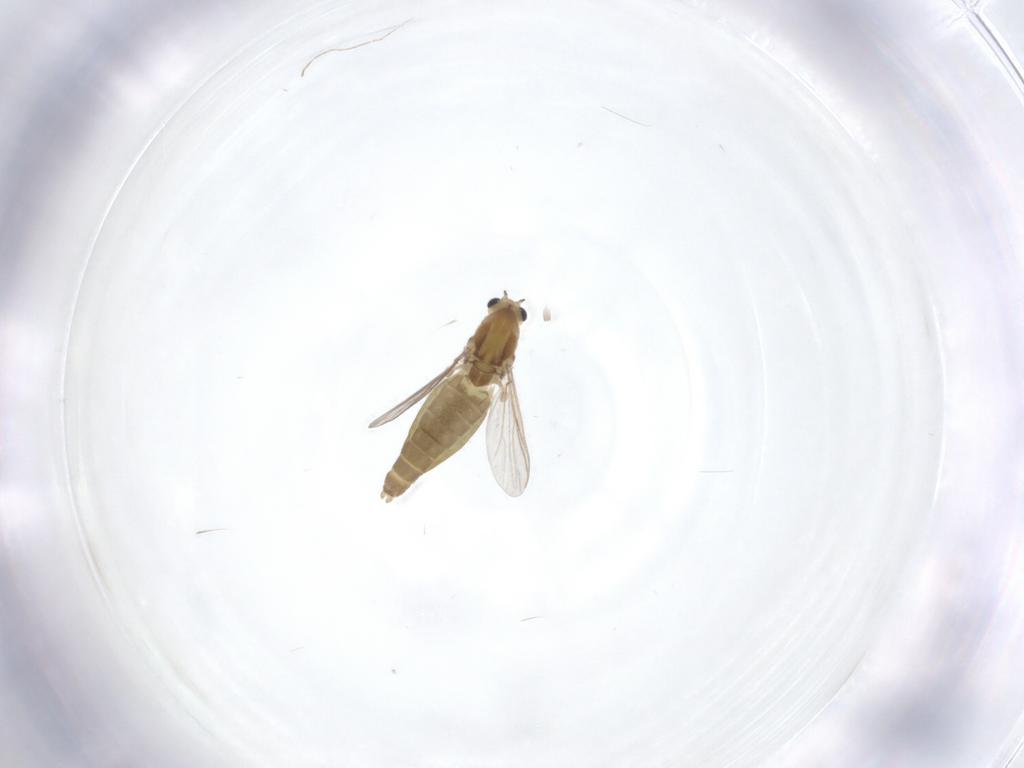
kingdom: Animalia
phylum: Arthropoda
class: Insecta
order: Diptera
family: Chironomidae
